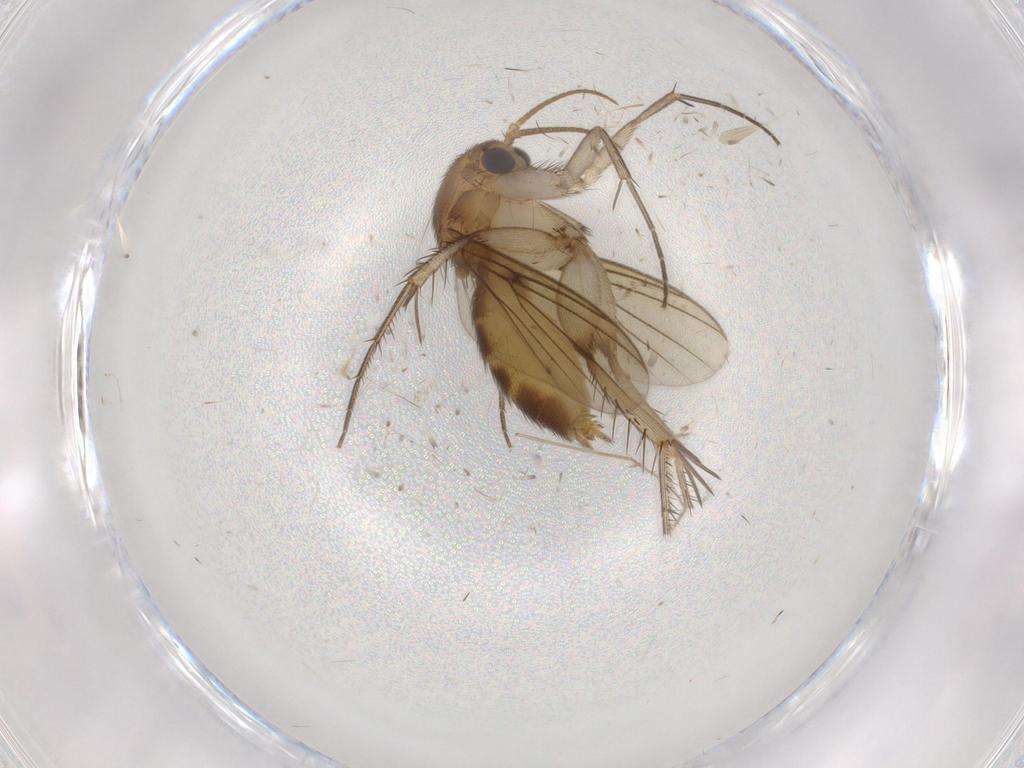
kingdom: Animalia
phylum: Arthropoda
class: Insecta
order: Diptera
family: Mycetophilidae
